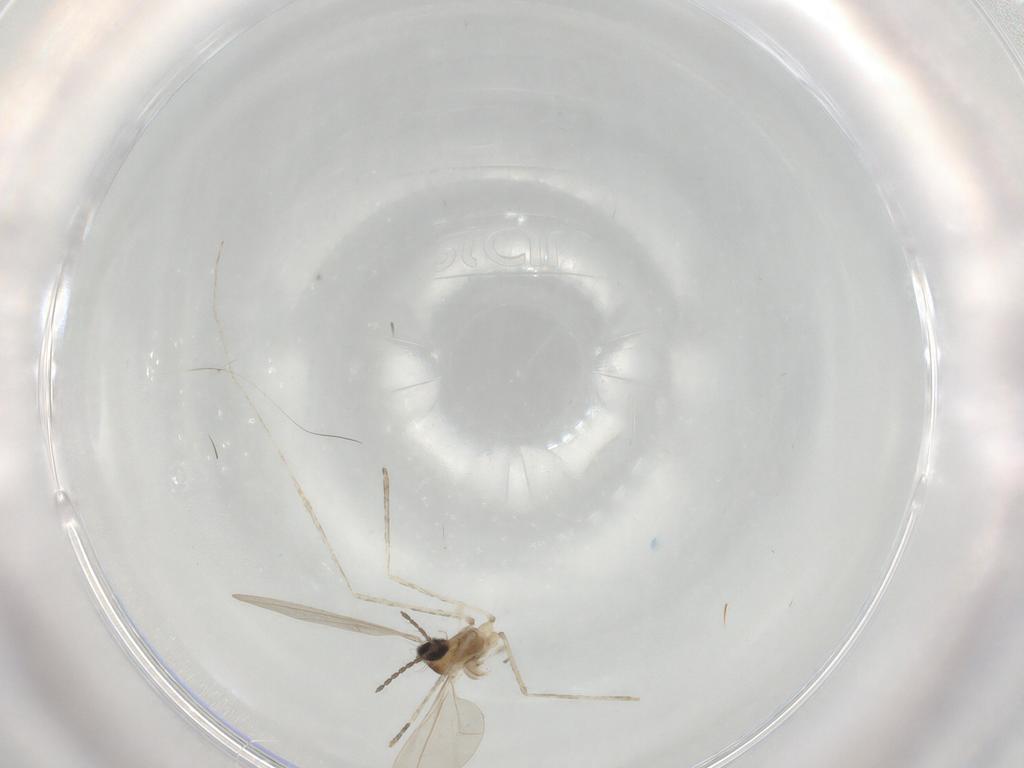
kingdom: Animalia
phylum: Arthropoda
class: Insecta
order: Diptera
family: Cecidomyiidae
